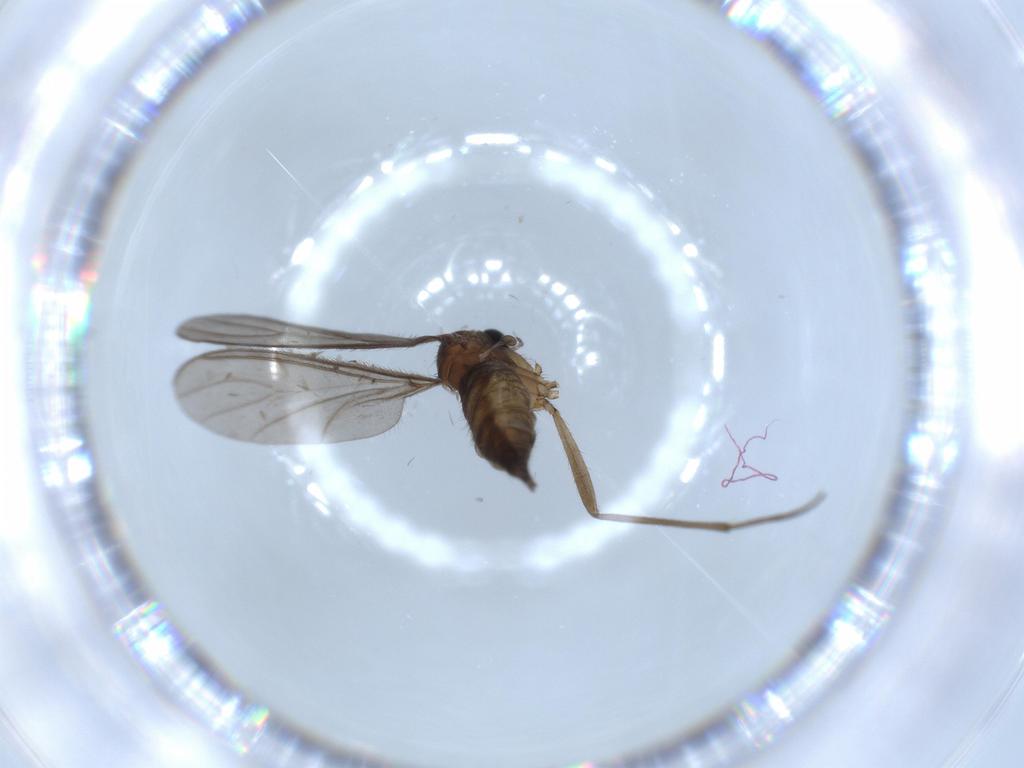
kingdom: Animalia
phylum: Arthropoda
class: Insecta
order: Diptera
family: Sciaridae
